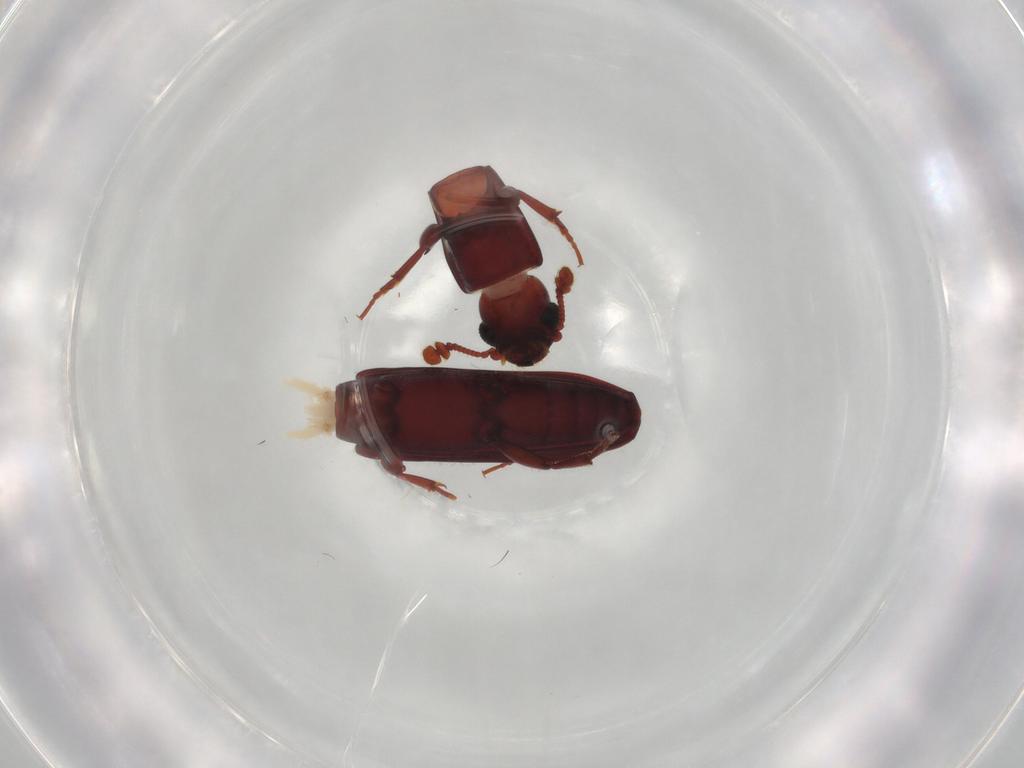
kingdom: Animalia
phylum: Arthropoda
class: Insecta
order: Coleoptera
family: Bothrideridae
